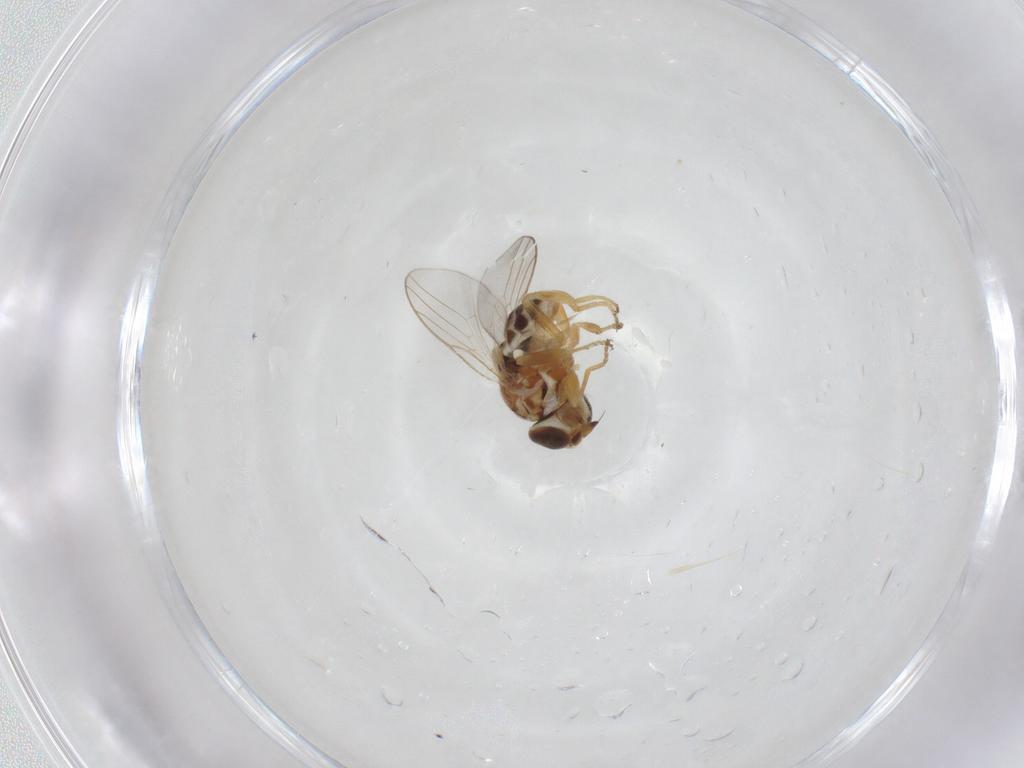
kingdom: Animalia
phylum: Arthropoda
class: Insecta
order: Diptera
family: Chloropidae
